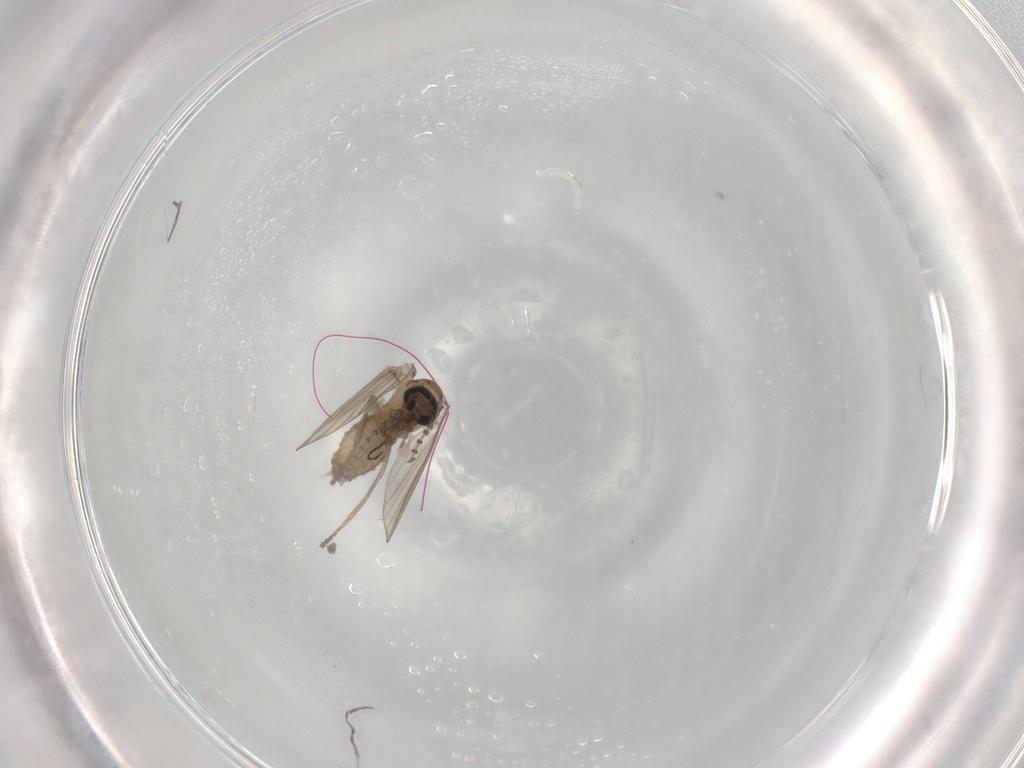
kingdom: Animalia
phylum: Arthropoda
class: Insecta
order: Diptera
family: Psychodidae
